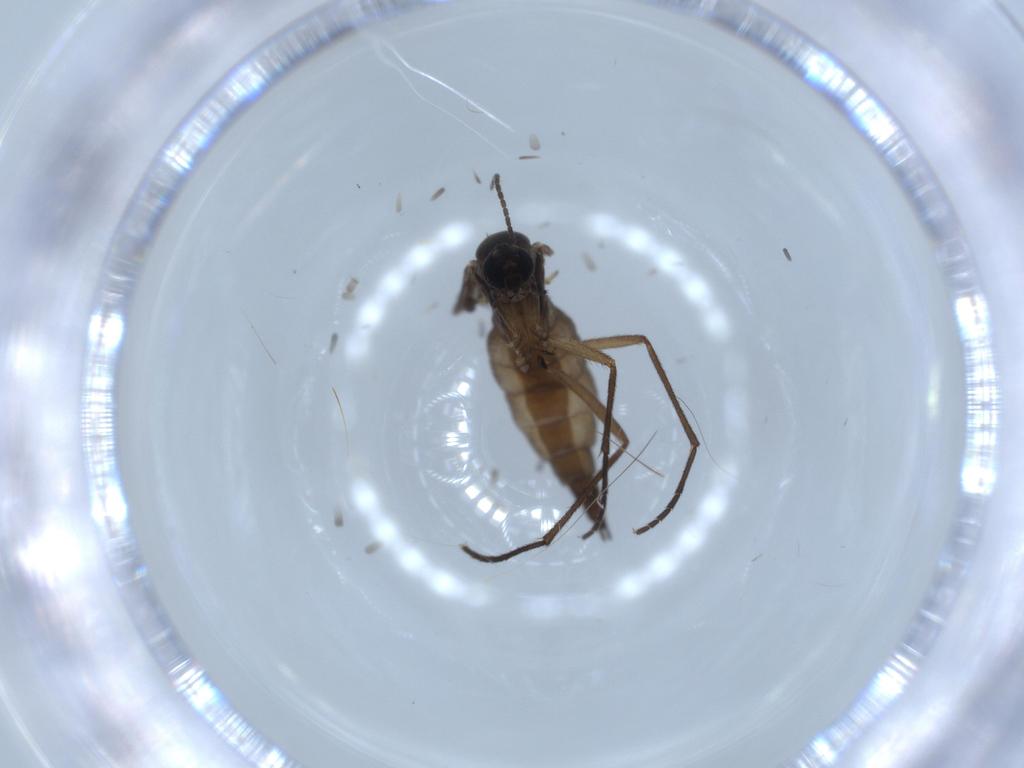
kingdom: Animalia
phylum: Arthropoda
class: Insecta
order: Diptera
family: Sciaridae
